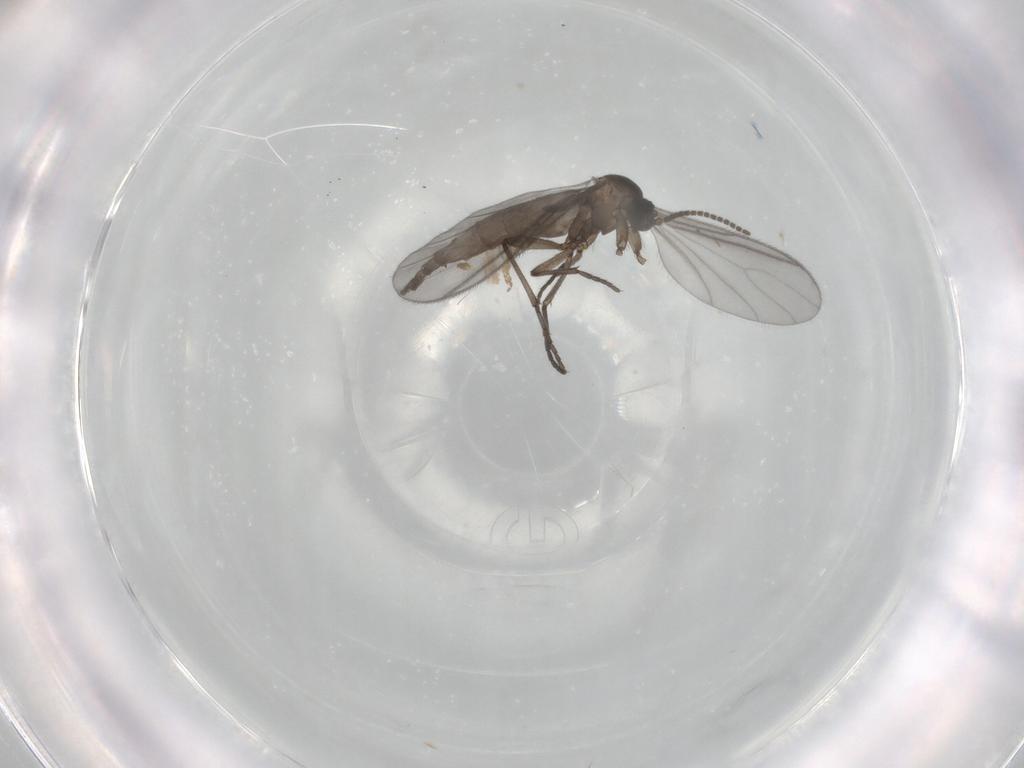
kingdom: Animalia
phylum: Arthropoda
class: Insecta
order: Diptera
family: Sciaridae
